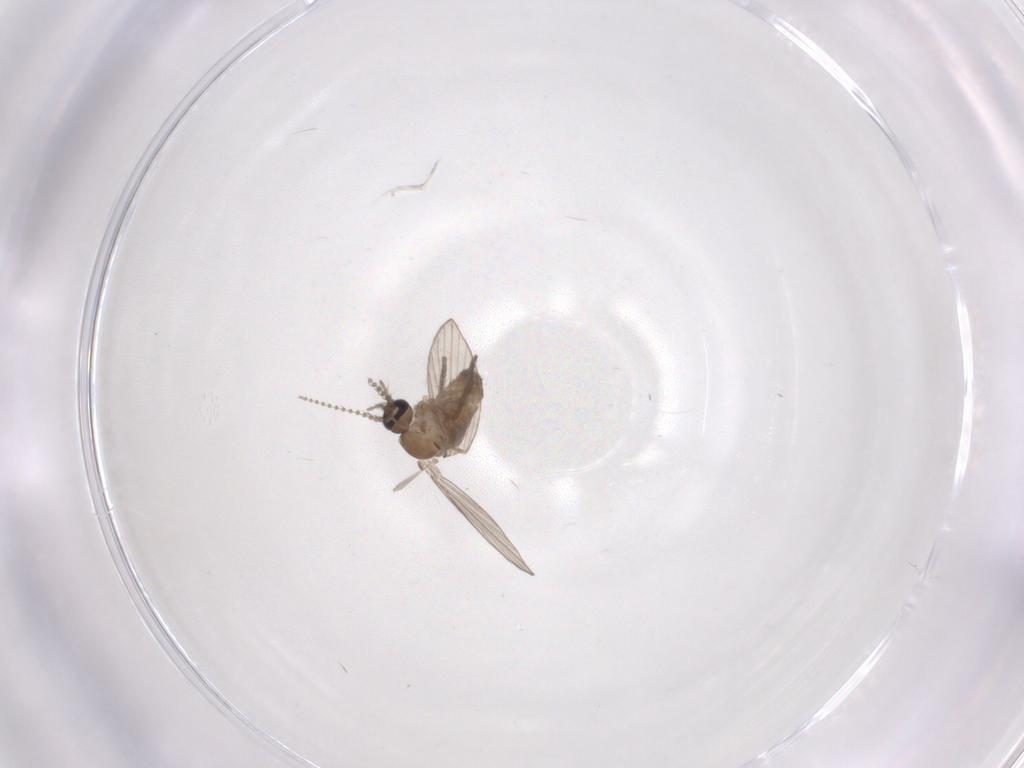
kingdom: Animalia
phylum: Arthropoda
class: Insecta
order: Diptera
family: Psychodidae
